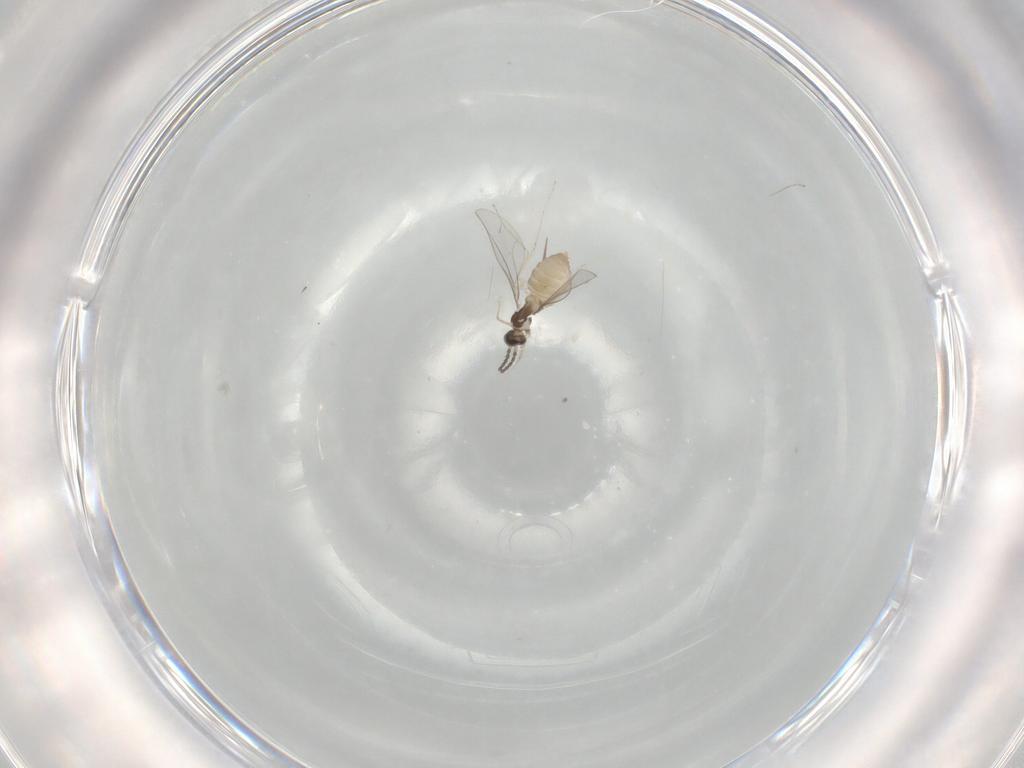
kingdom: Animalia
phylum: Arthropoda
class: Insecta
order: Diptera
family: Cecidomyiidae
